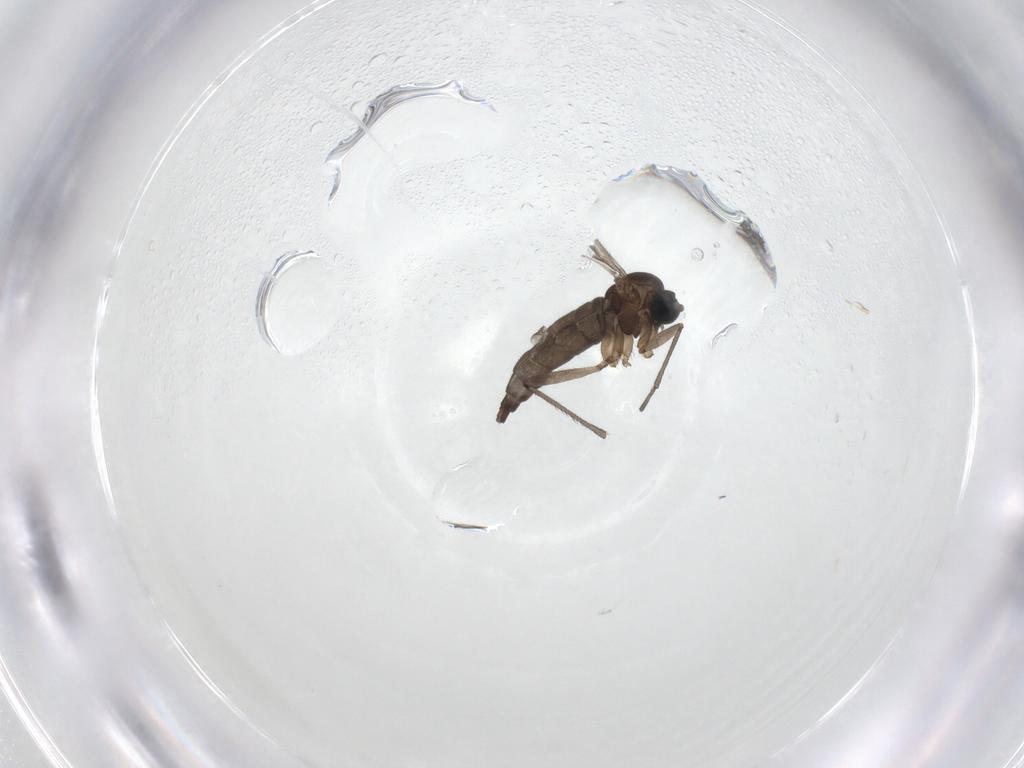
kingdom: Animalia
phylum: Arthropoda
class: Insecta
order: Diptera
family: Sciaridae
